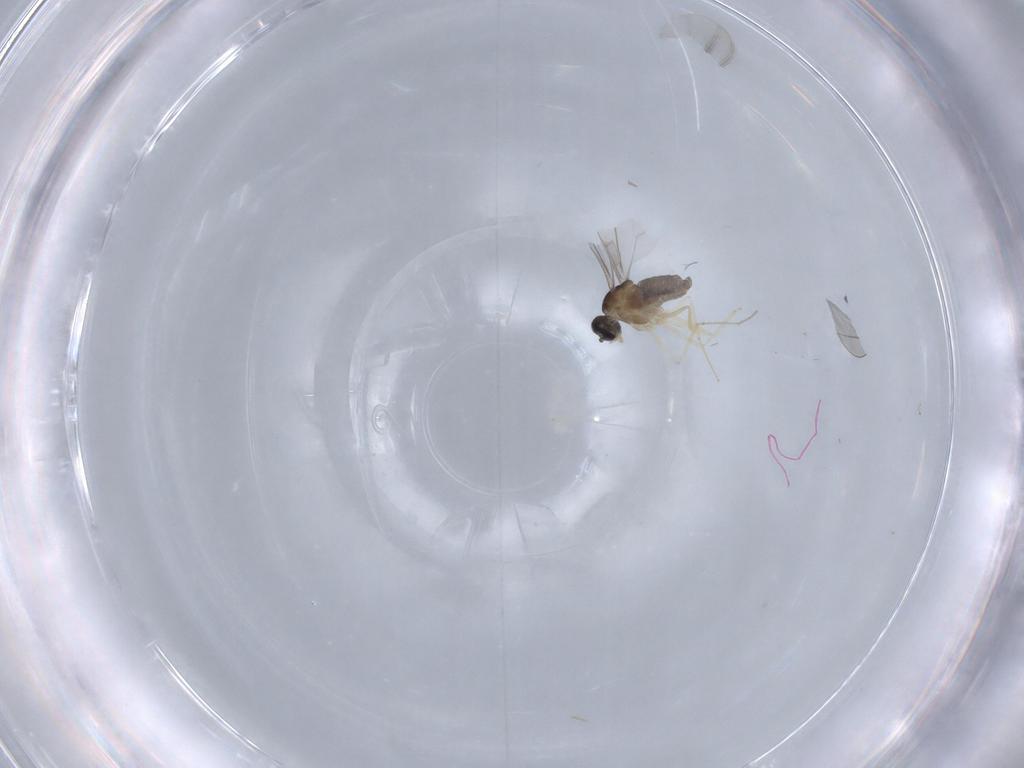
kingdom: Animalia
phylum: Arthropoda
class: Insecta
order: Diptera
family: Cecidomyiidae
